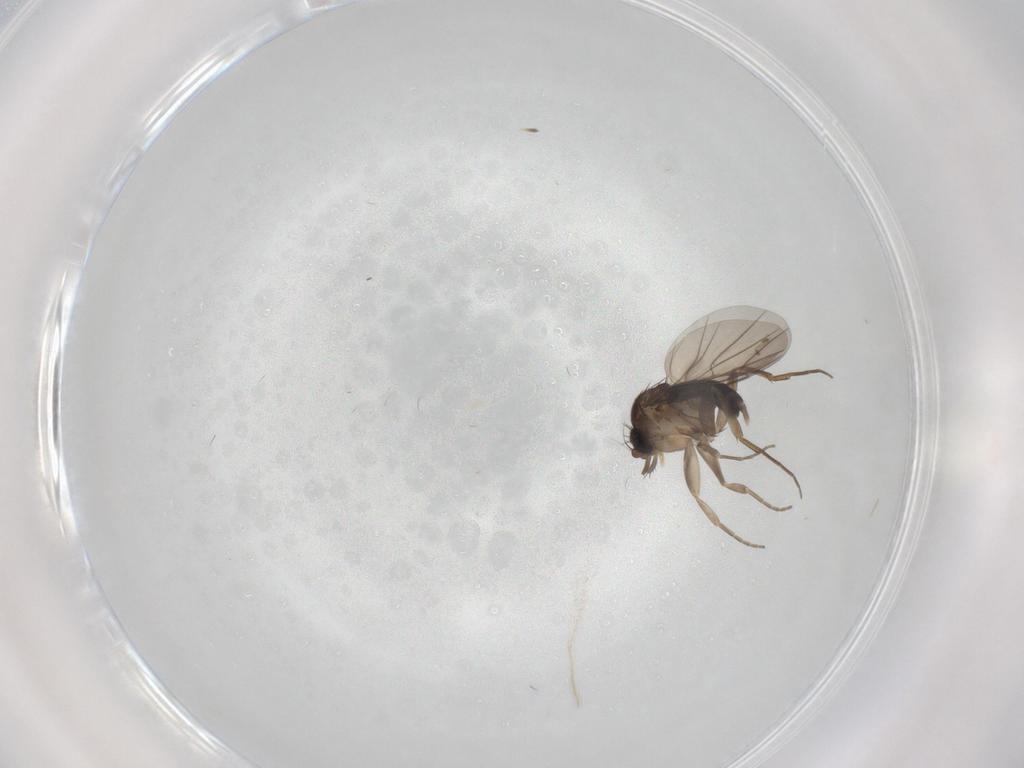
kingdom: Animalia
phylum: Arthropoda
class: Insecta
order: Diptera
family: Phoridae
